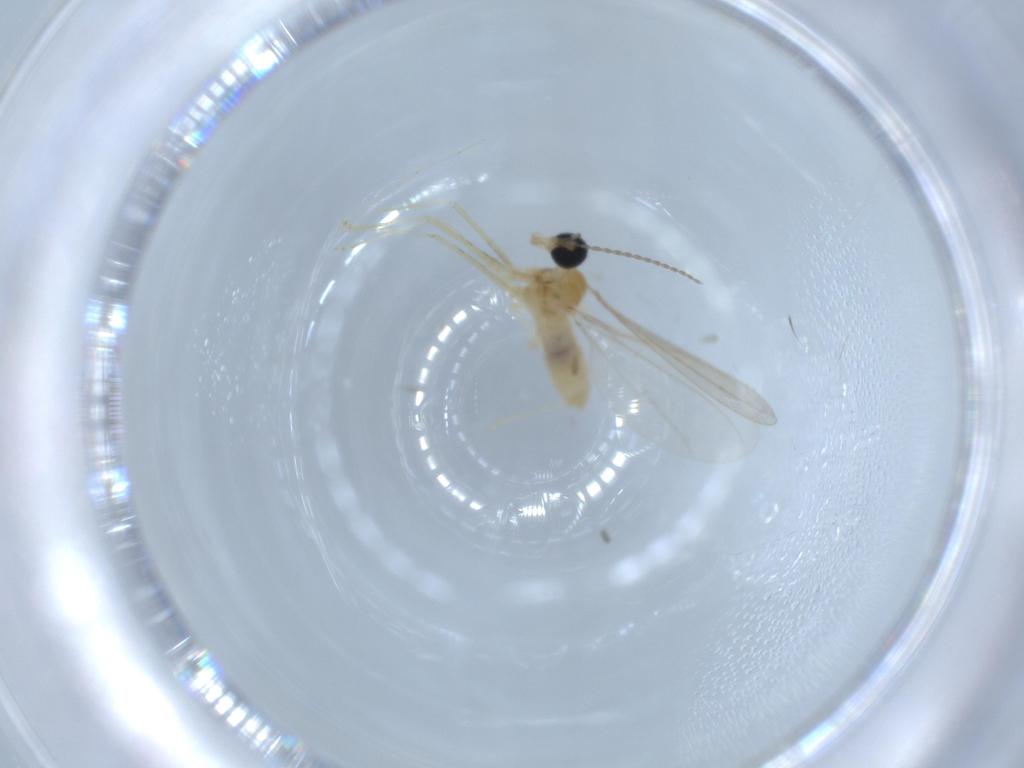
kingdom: Animalia
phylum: Arthropoda
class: Insecta
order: Diptera
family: Chironomidae
